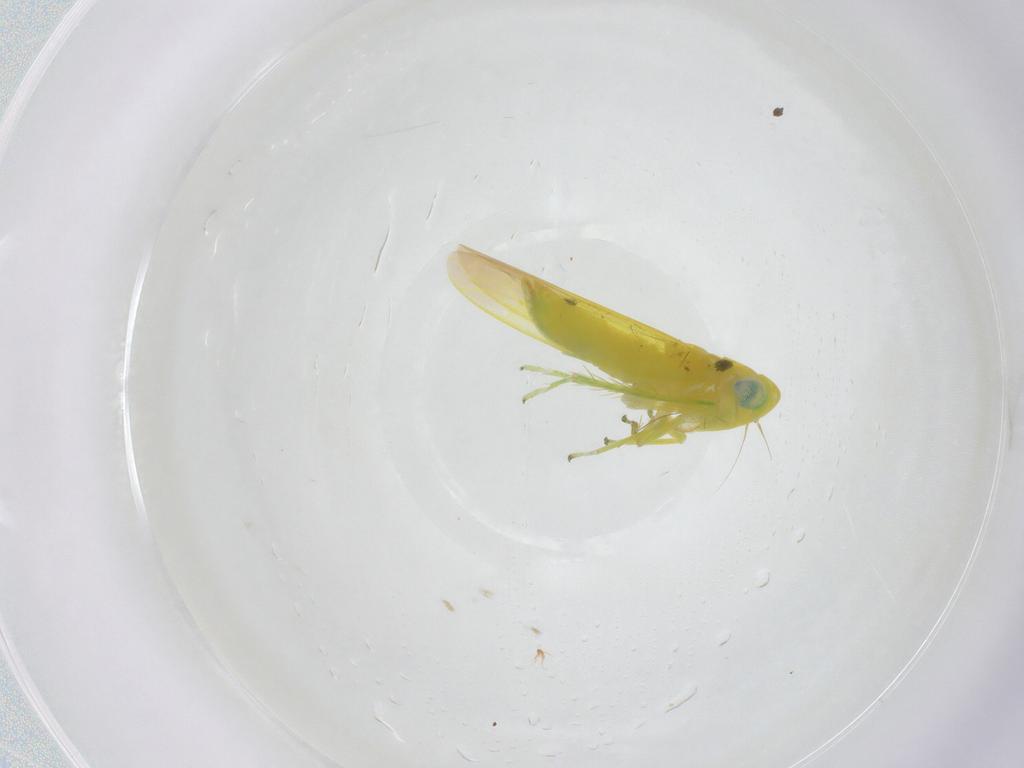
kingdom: Animalia
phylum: Arthropoda
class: Insecta
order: Hemiptera
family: Cicadellidae
